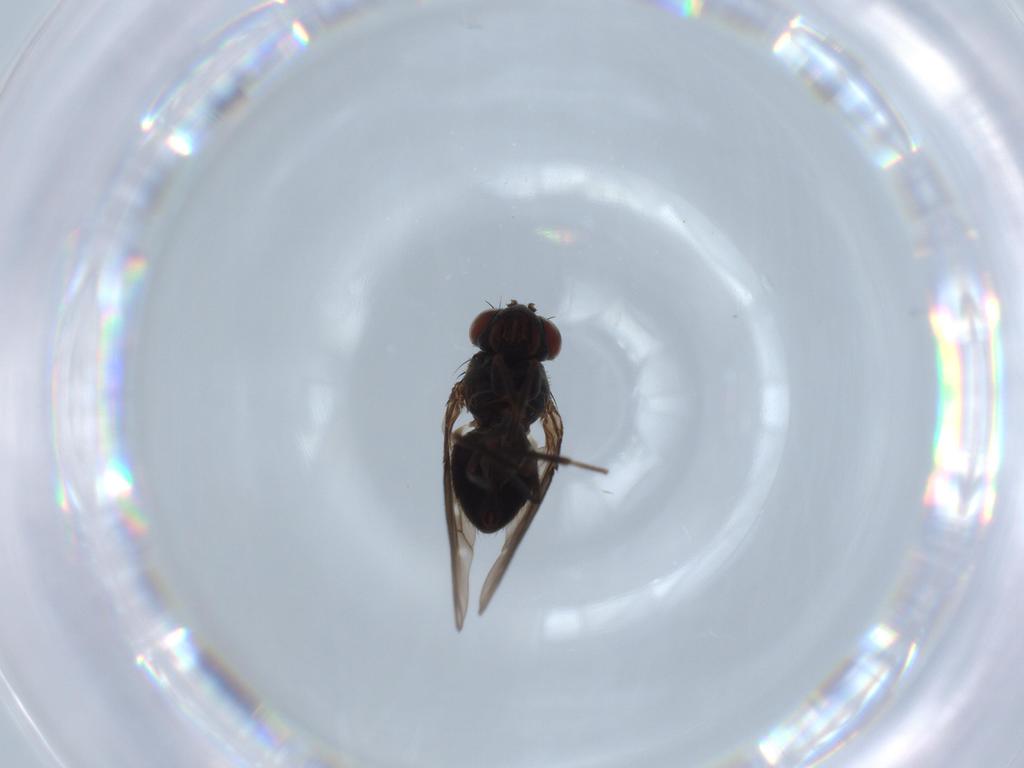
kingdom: Animalia
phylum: Arthropoda
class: Insecta
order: Diptera
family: Ephydridae
